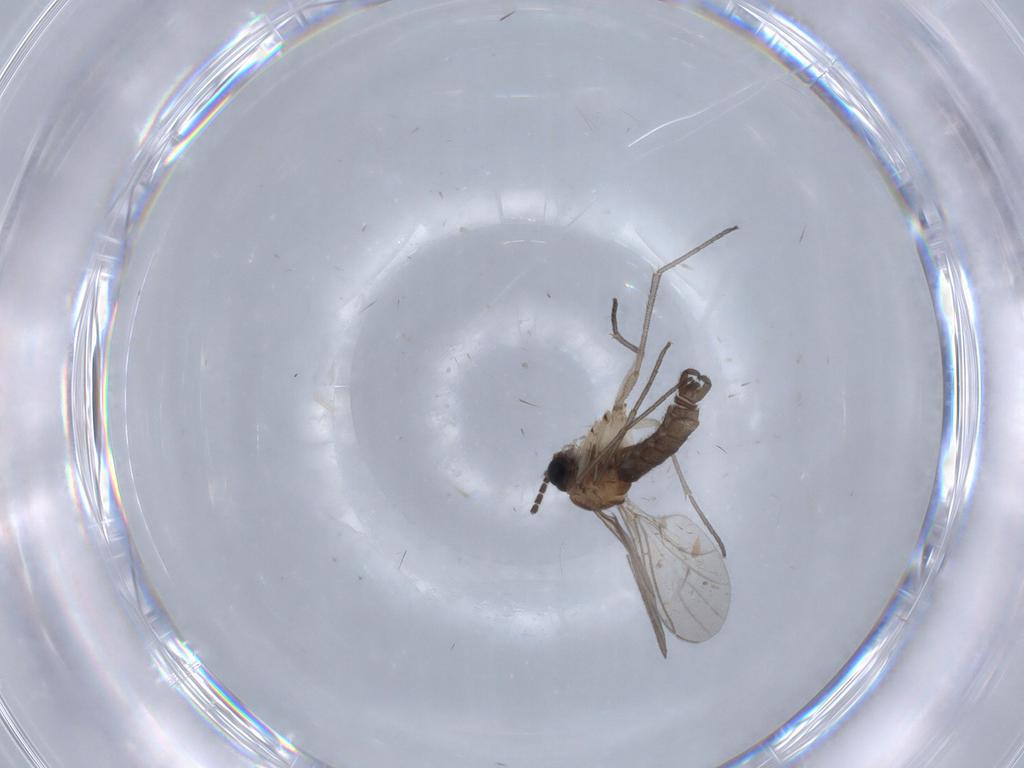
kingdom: Animalia
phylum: Arthropoda
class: Insecta
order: Diptera
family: Sciaridae
